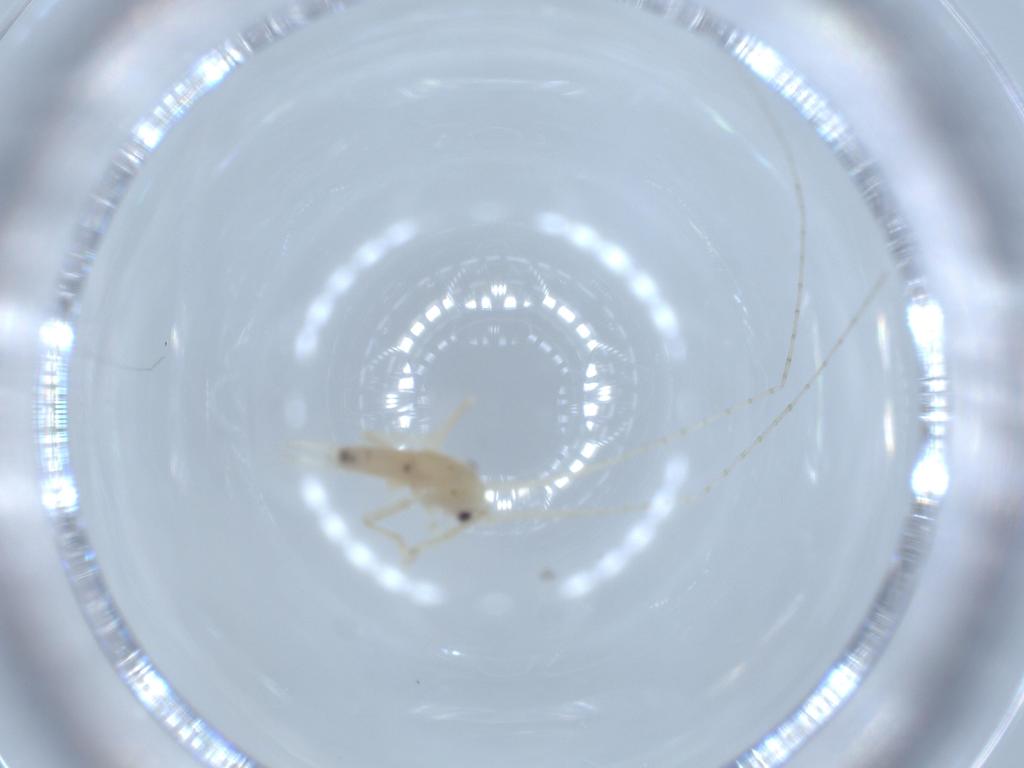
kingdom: Animalia
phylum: Arthropoda
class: Insecta
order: Orthoptera
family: Trigonidiidae
